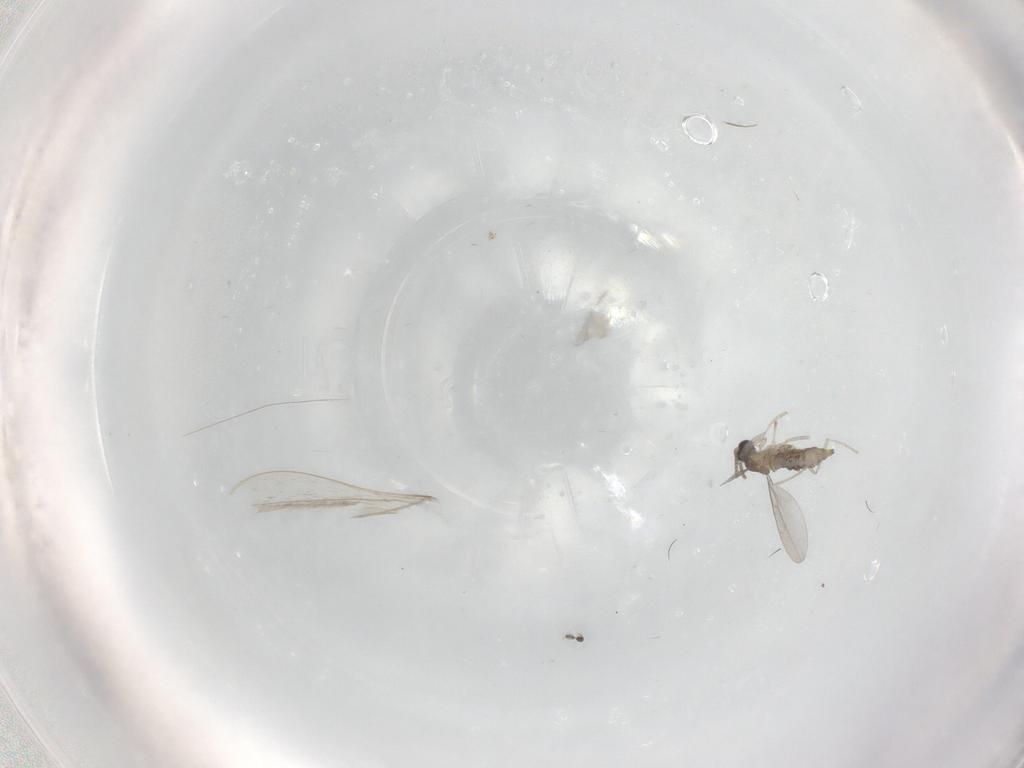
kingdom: Animalia
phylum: Arthropoda
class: Insecta
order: Diptera
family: Cecidomyiidae
